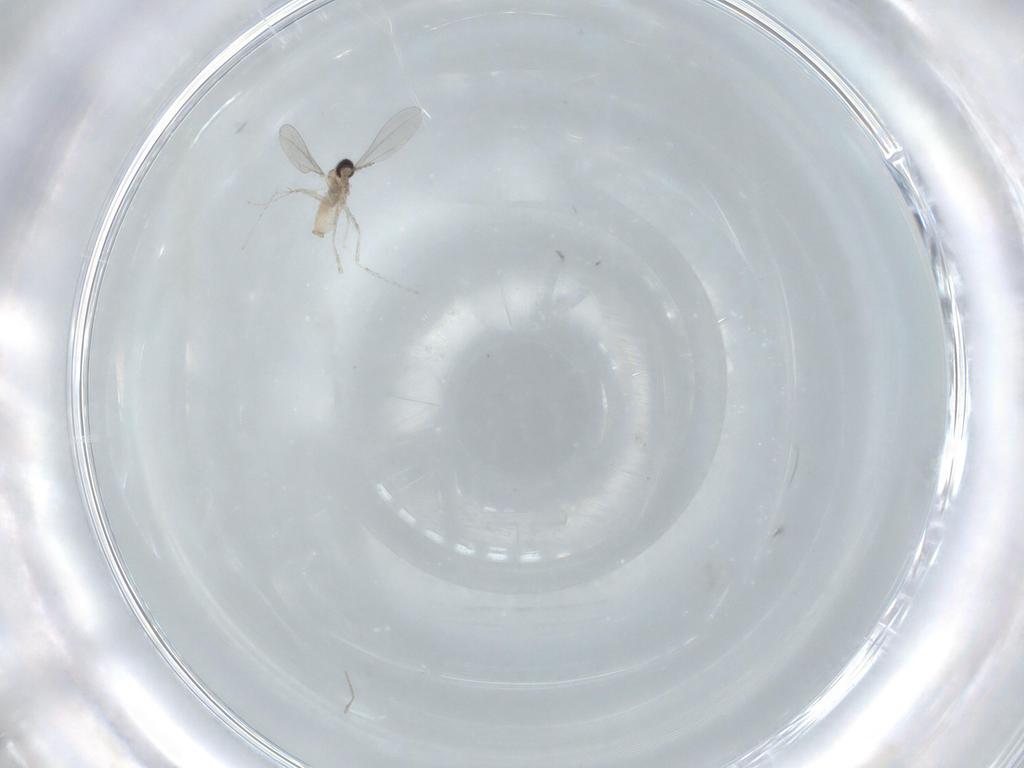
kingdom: Animalia
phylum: Arthropoda
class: Insecta
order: Diptera
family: Cecidomyiidae
